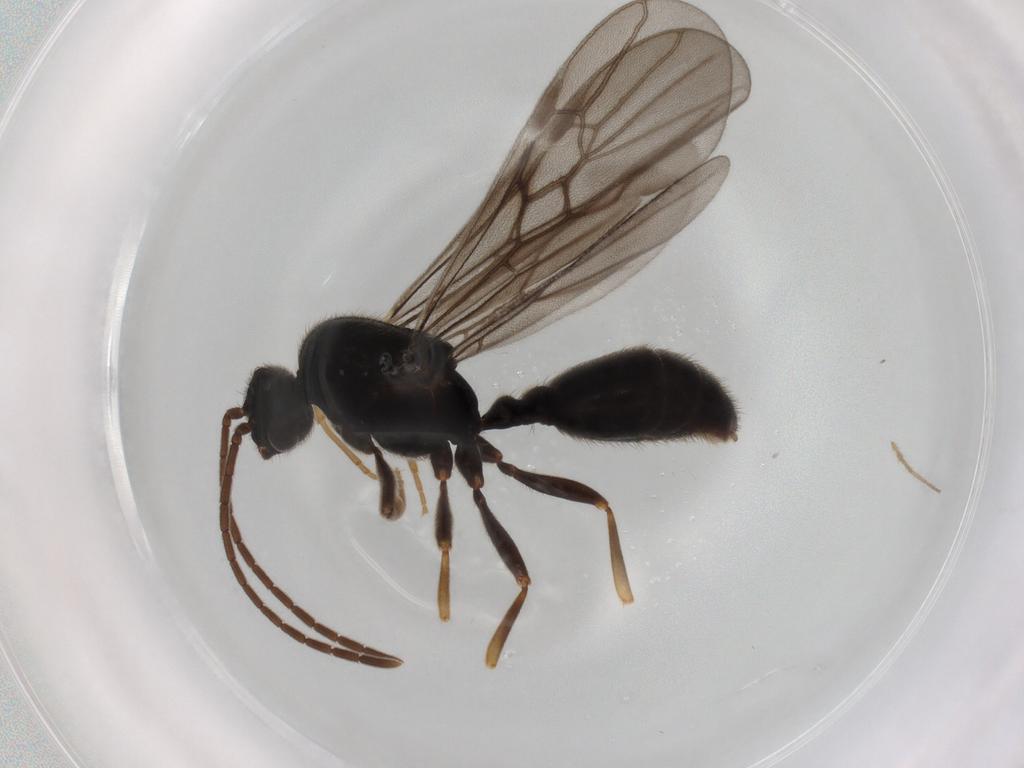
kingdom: Animalia
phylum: Arthropoda
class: Insecta
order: Hymenoptera
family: Formicidae
